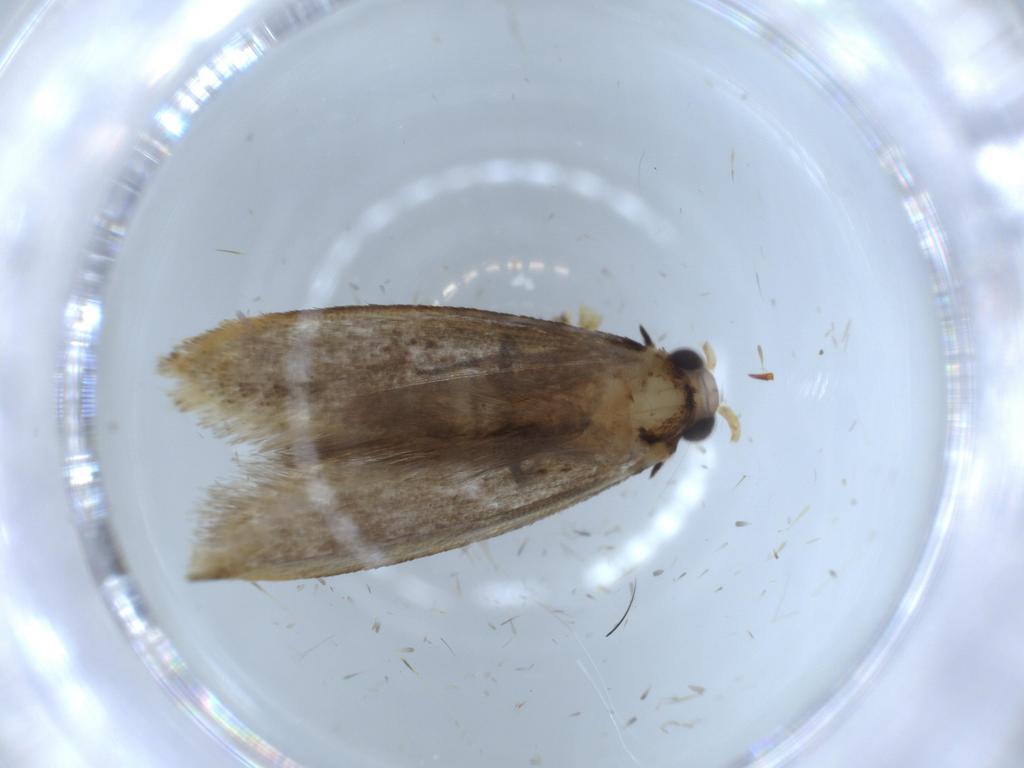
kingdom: Animalia
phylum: Arthropoda
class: Insecta
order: Lepidoptera
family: Tineidae
